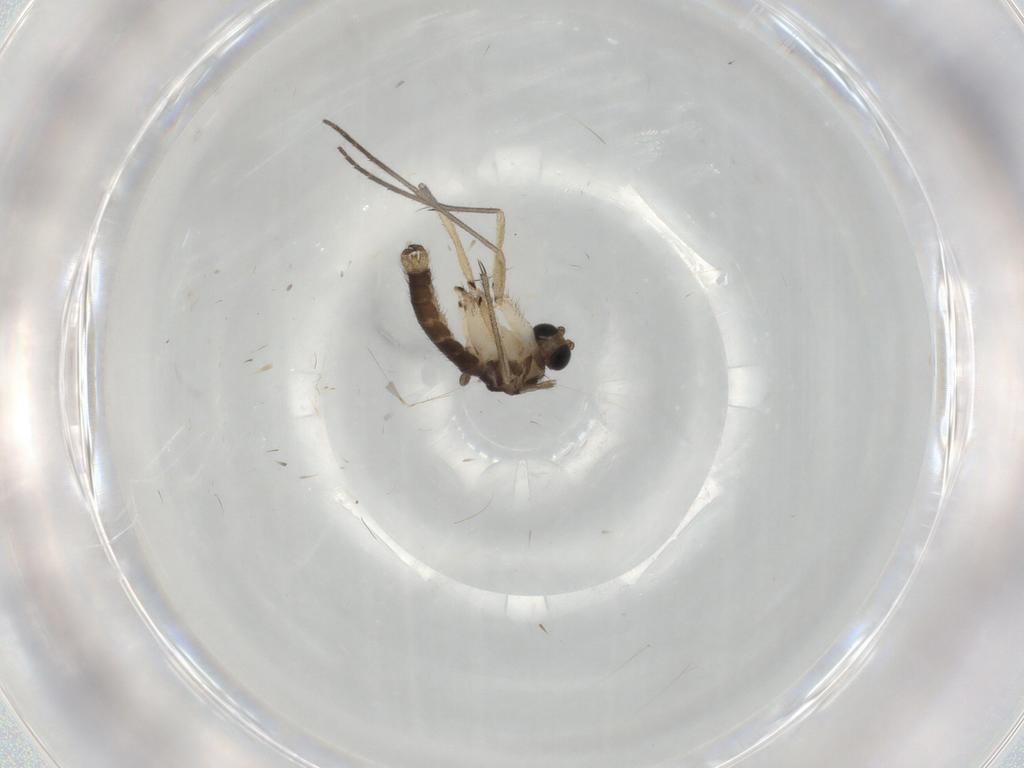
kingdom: Animalia
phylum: Arthropoda
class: Insecta
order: Diptera
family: Sciaridae
